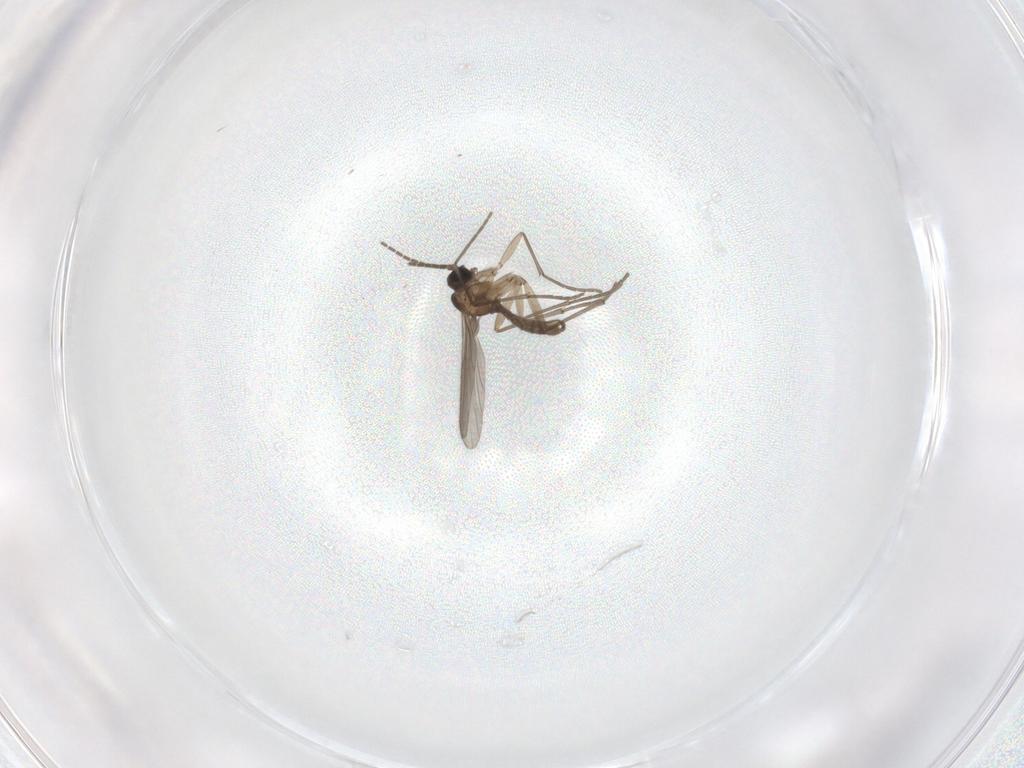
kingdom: Animalia
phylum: Arthropoda
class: Insecta
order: Diptera
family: Sciaridae
